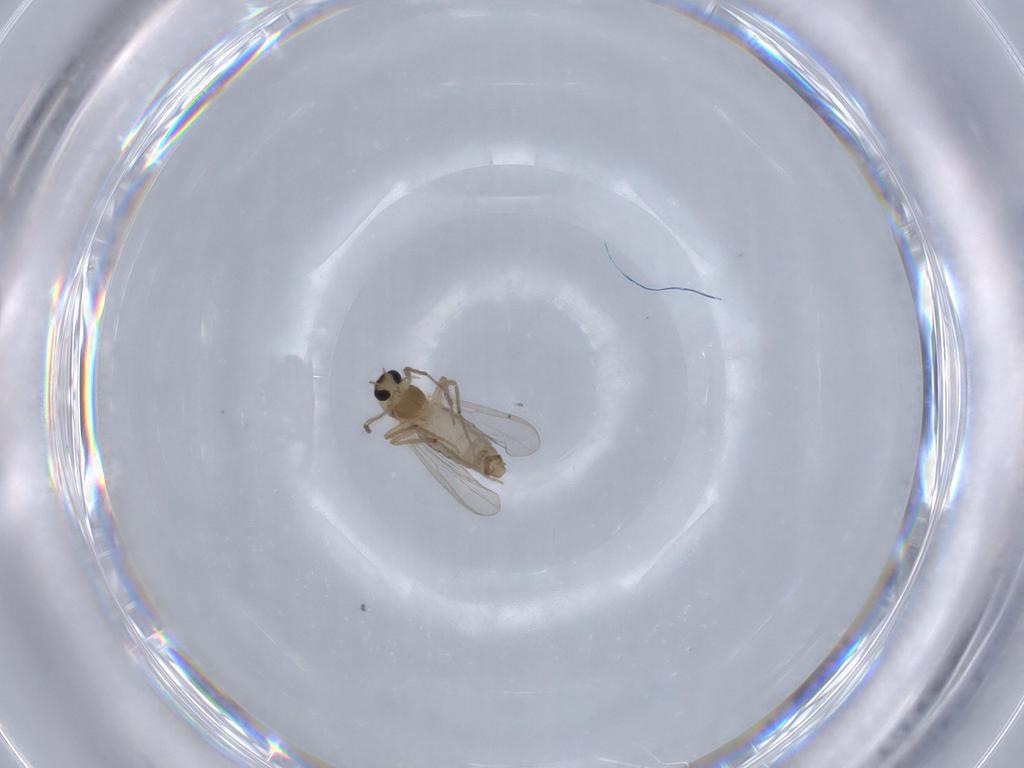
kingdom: Animalia
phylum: Arthropoda
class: Insecta
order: Diptera
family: Chironomidae
